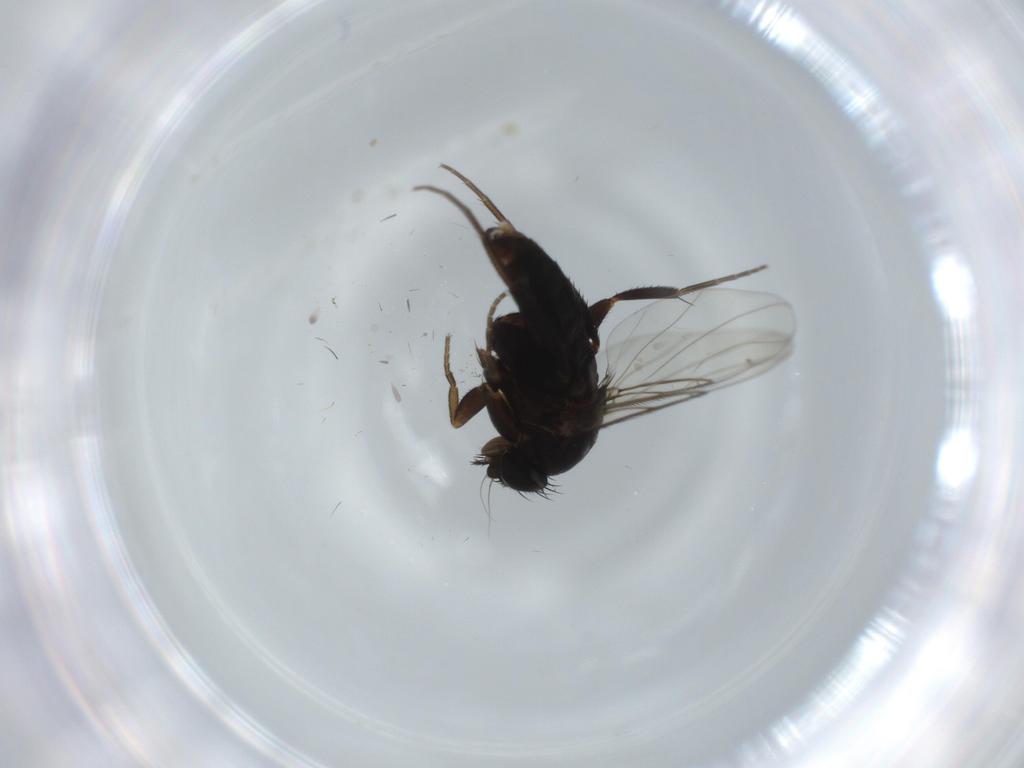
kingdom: Animalia
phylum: Arthropoda
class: Insecta
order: Diptera
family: Phoridae
